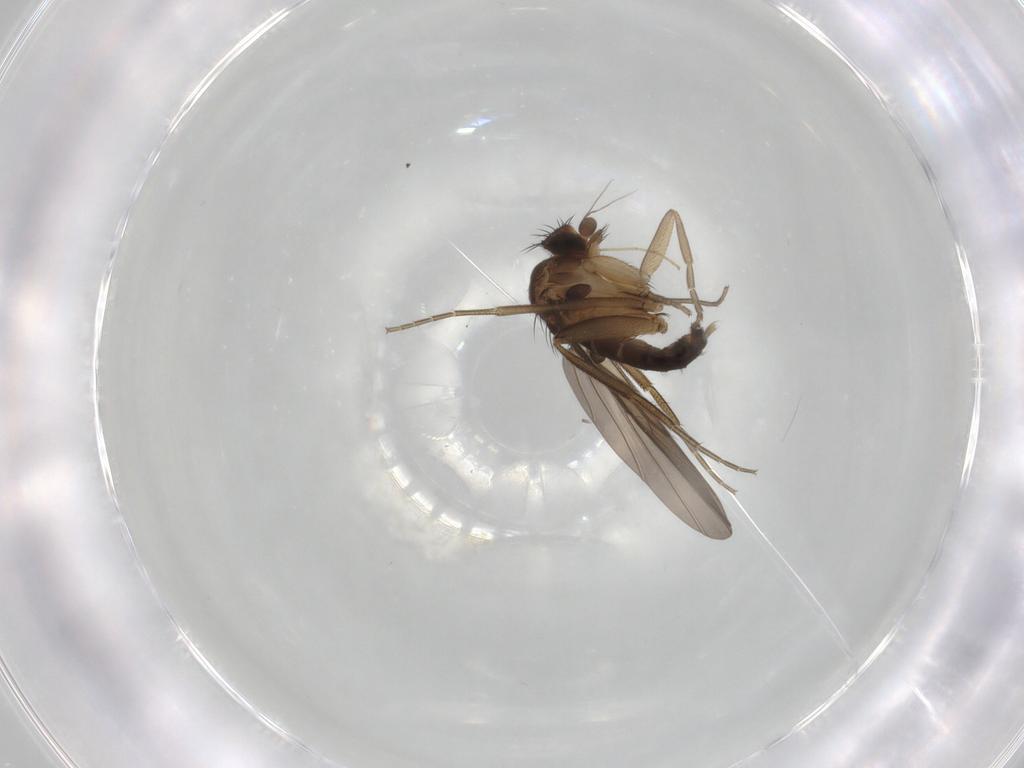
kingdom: Animalia
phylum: Arthropoda
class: Insecta
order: Diptera
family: Phoridae
